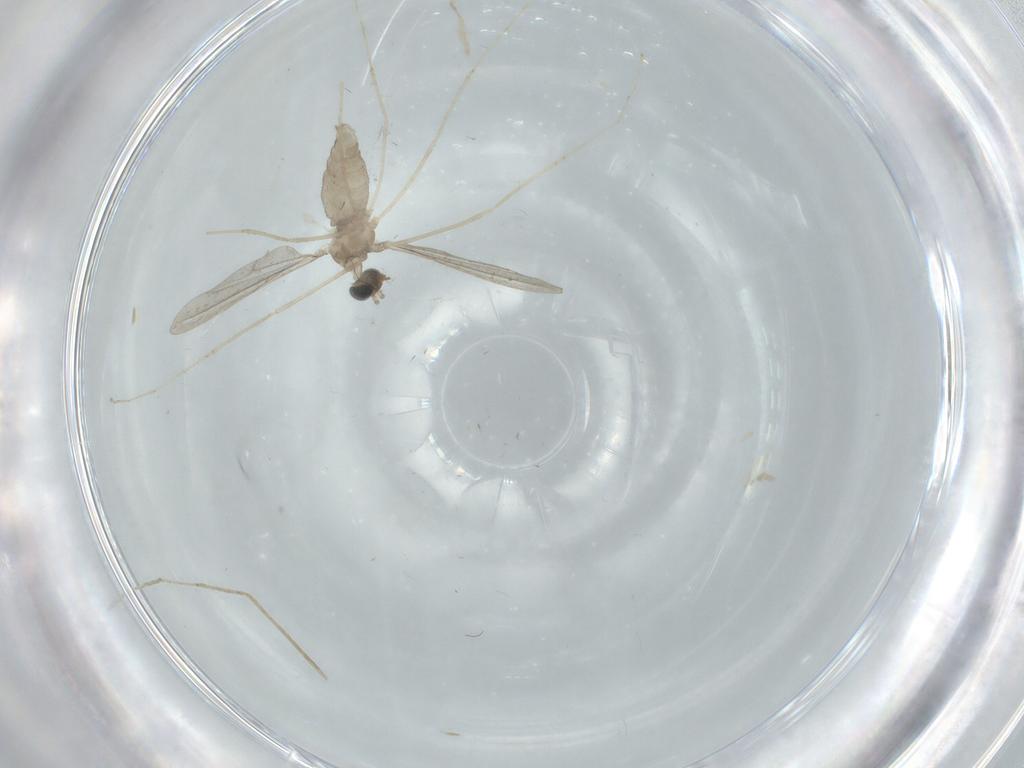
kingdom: Animalia
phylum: Arthropoda
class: Insecta
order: Diptera
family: Cecidomyiidae
